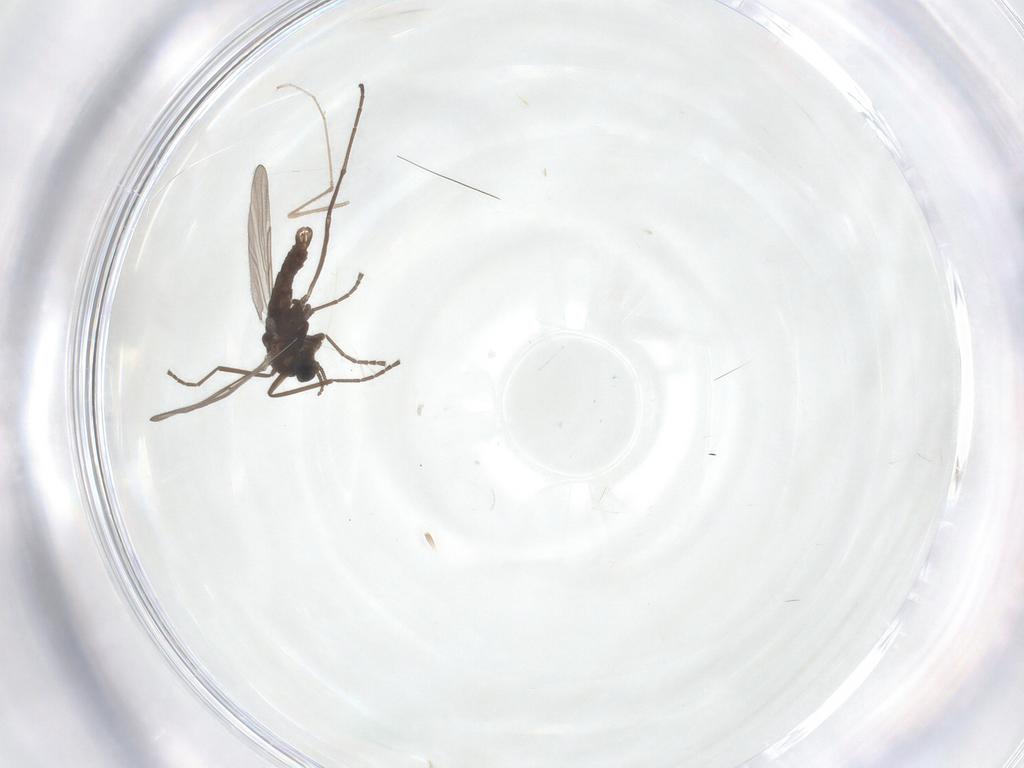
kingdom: Animalia
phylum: Arthropoda
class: Insecta
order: Diptera
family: Cecidomyiidae
